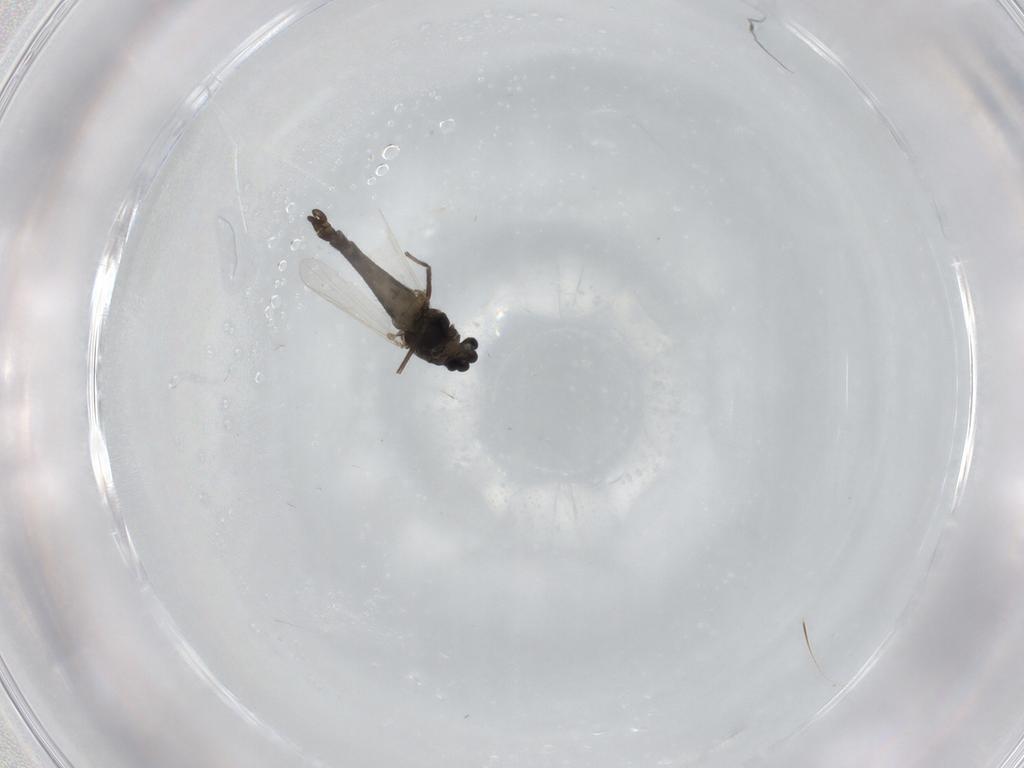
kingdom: Animalia
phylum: Arthropoda
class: Insecta
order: Diptera
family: Chironomidae
